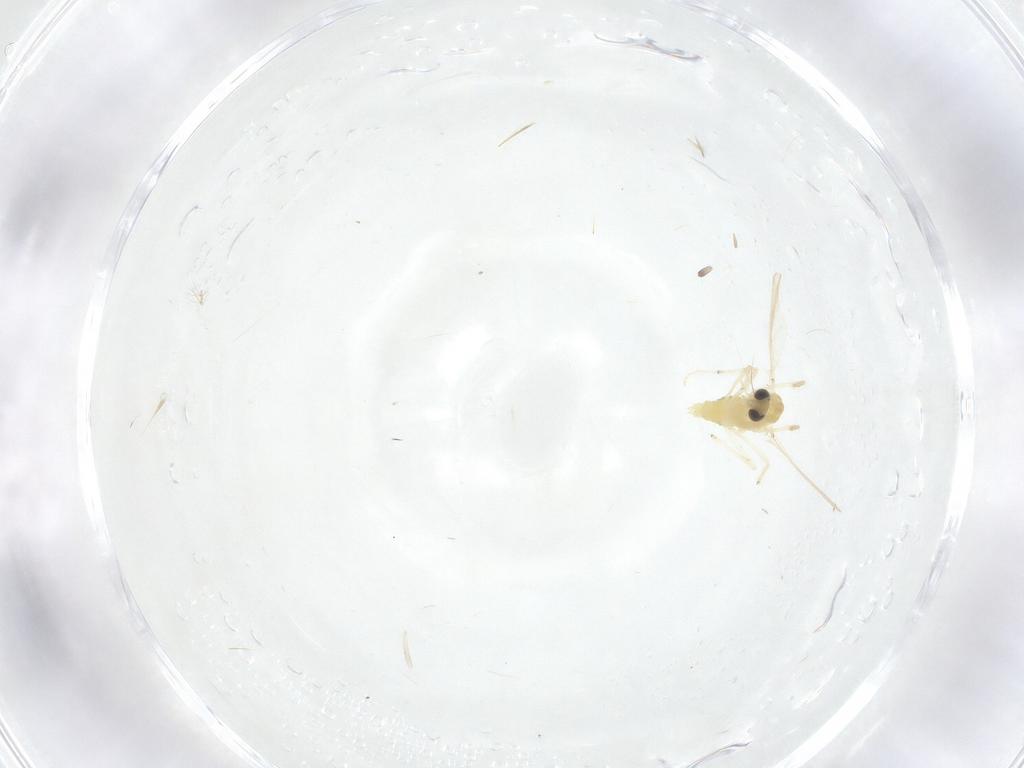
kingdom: Animalia
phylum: Arthropoda
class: Insecta
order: Diptera
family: Chironomidae
